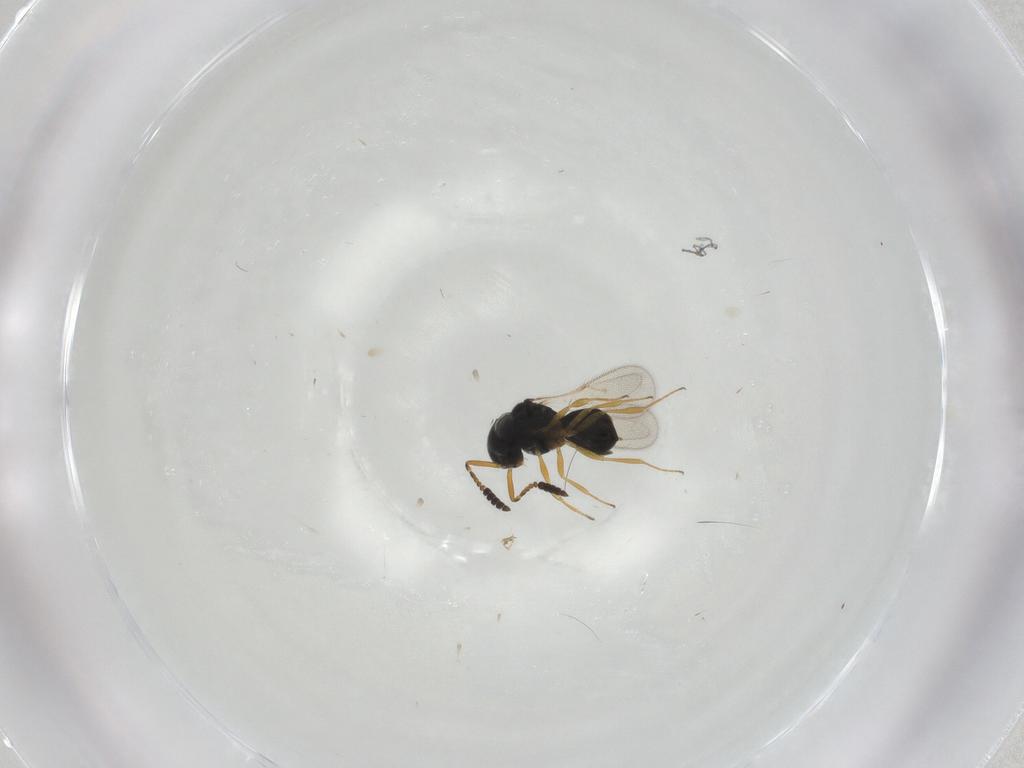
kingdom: Animalia
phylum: Arthropoda
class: Insecta
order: Hymenoptera
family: Scelionidae
